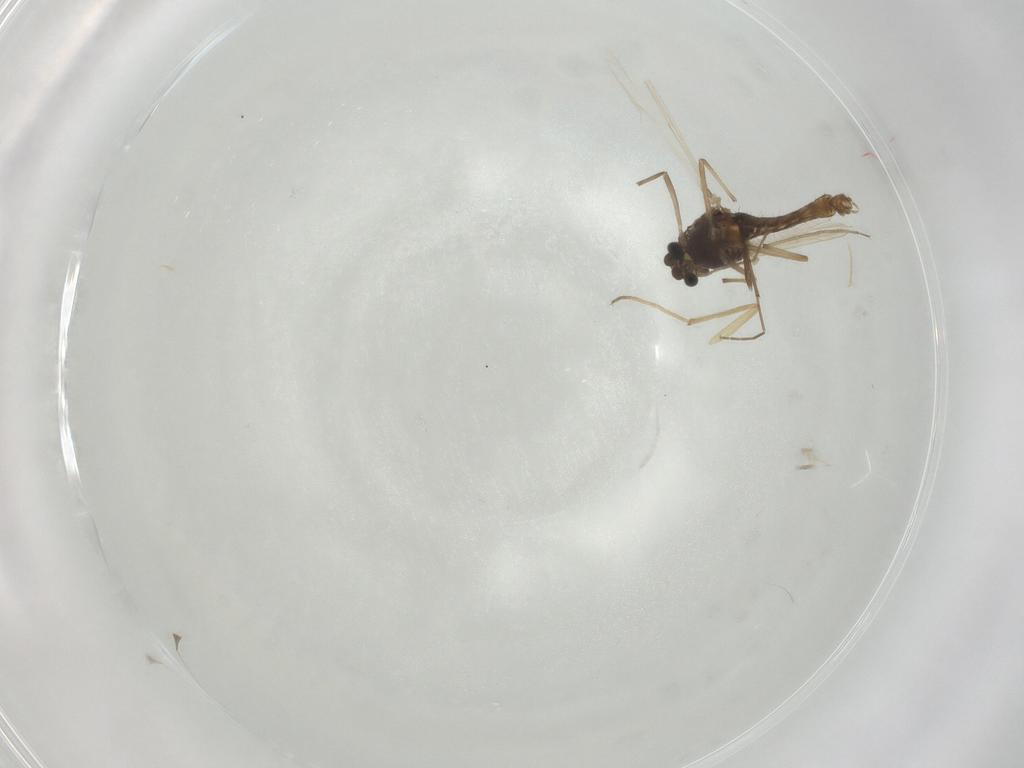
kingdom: Animalia
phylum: Arthropoda
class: Insecta
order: Diptera
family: Chironomidae
